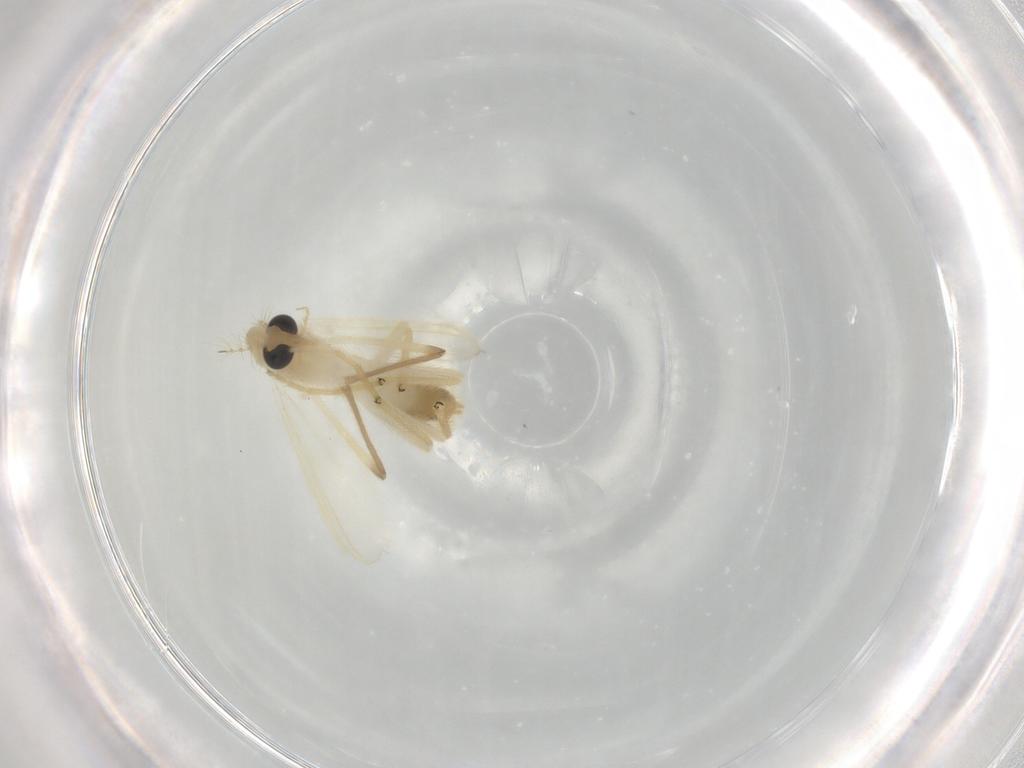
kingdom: Animalia
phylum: Arthropoda
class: Insecta
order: Diptera
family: Chironomidae
